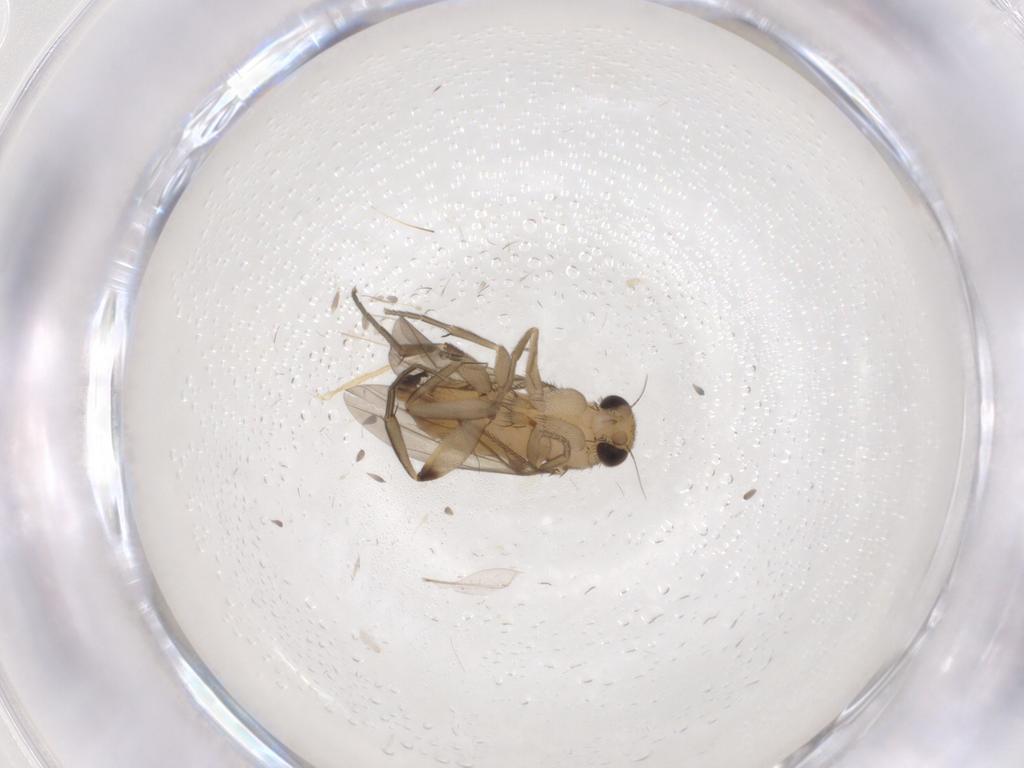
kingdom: Animalia
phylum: Arthropoda
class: Insecta
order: Diptera
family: Phoridae
